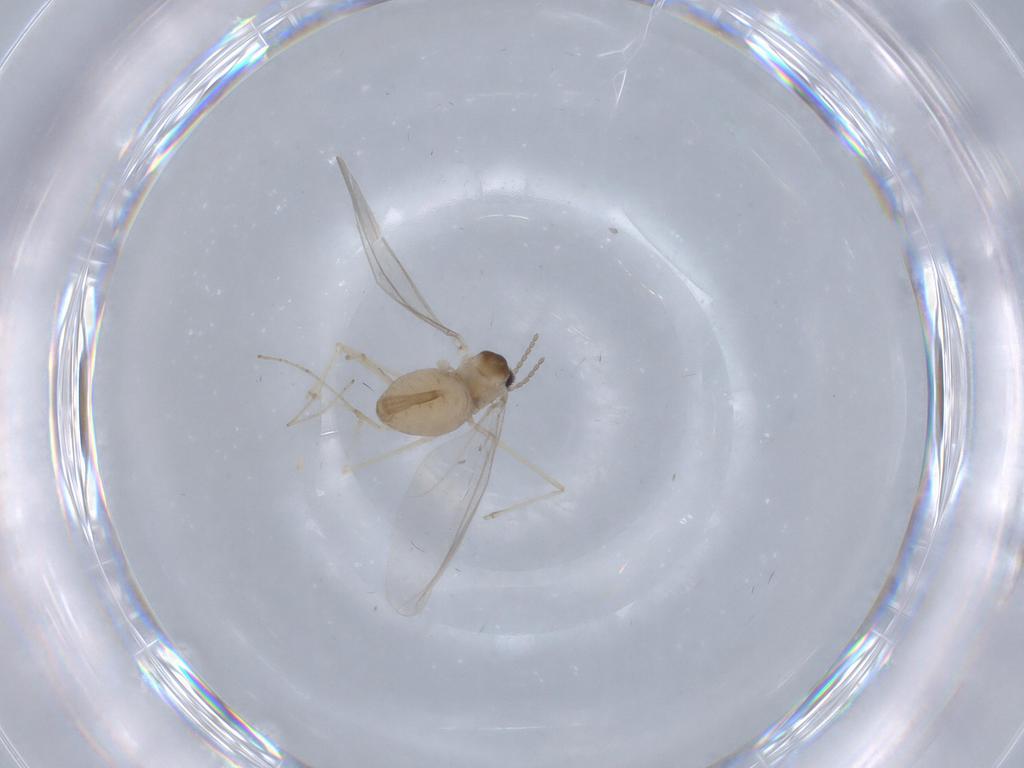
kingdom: Animalia
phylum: Arthropoda
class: Insecta
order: Diptera
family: Cecidomyiidae
